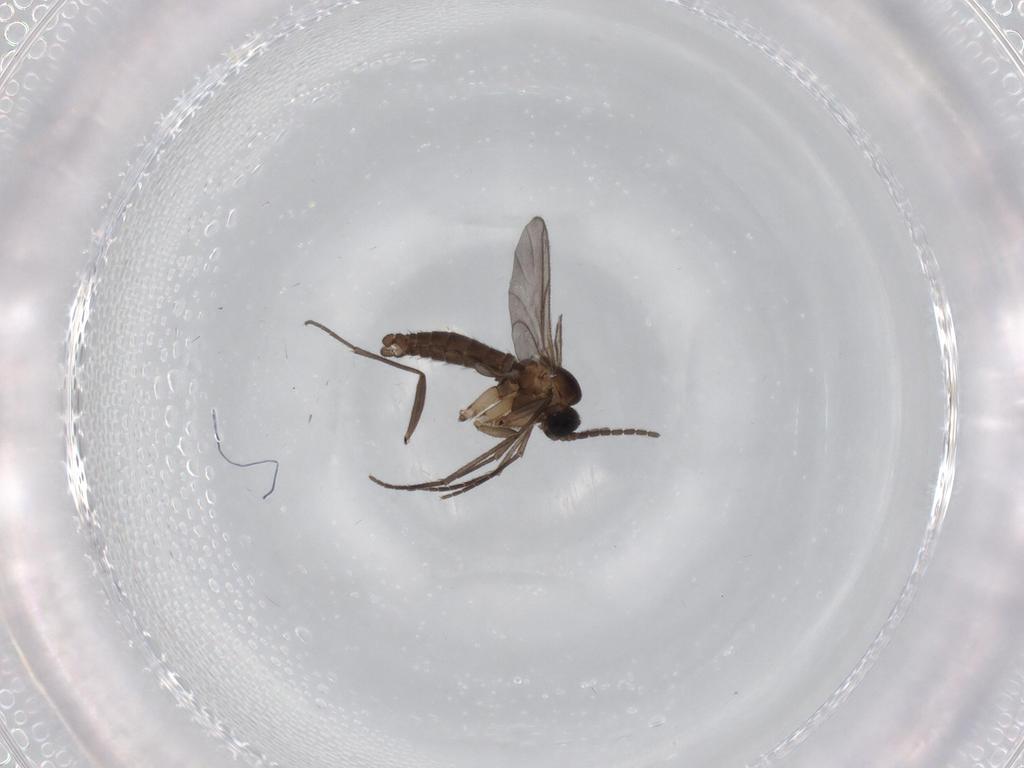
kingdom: Animalia
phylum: Arthropoda
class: Insecta
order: Diptera
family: Sciaridae
